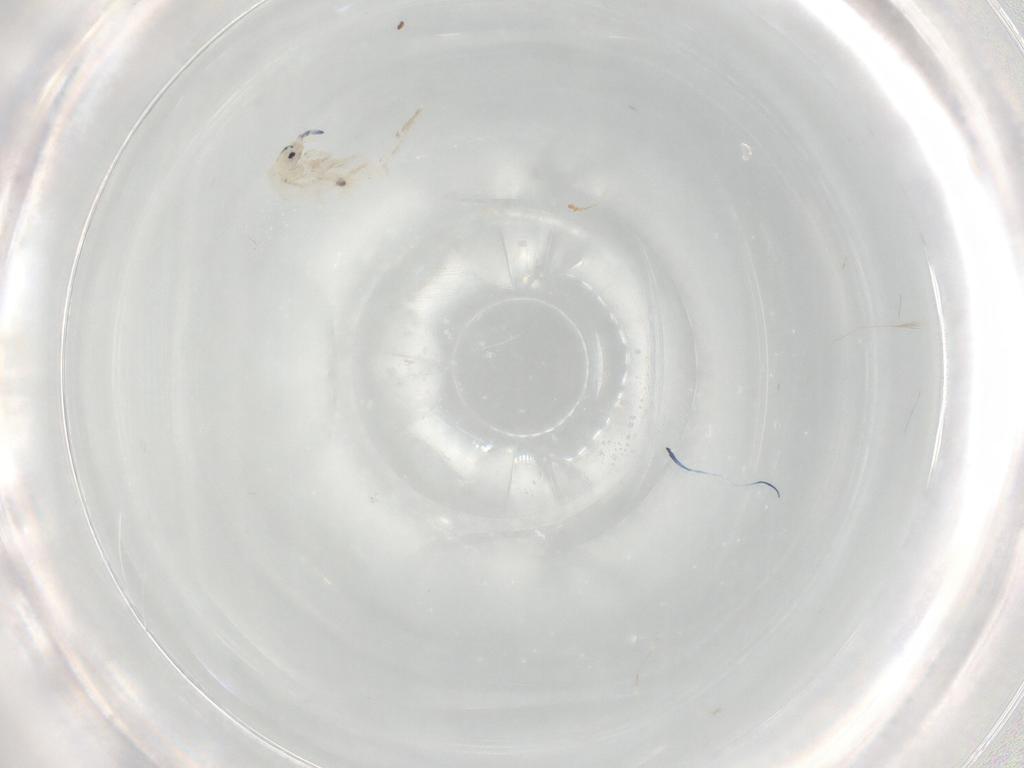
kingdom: Animalia
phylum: Arthropoda
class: Collembola
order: Entomobryomorpha
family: Entomobryidae
